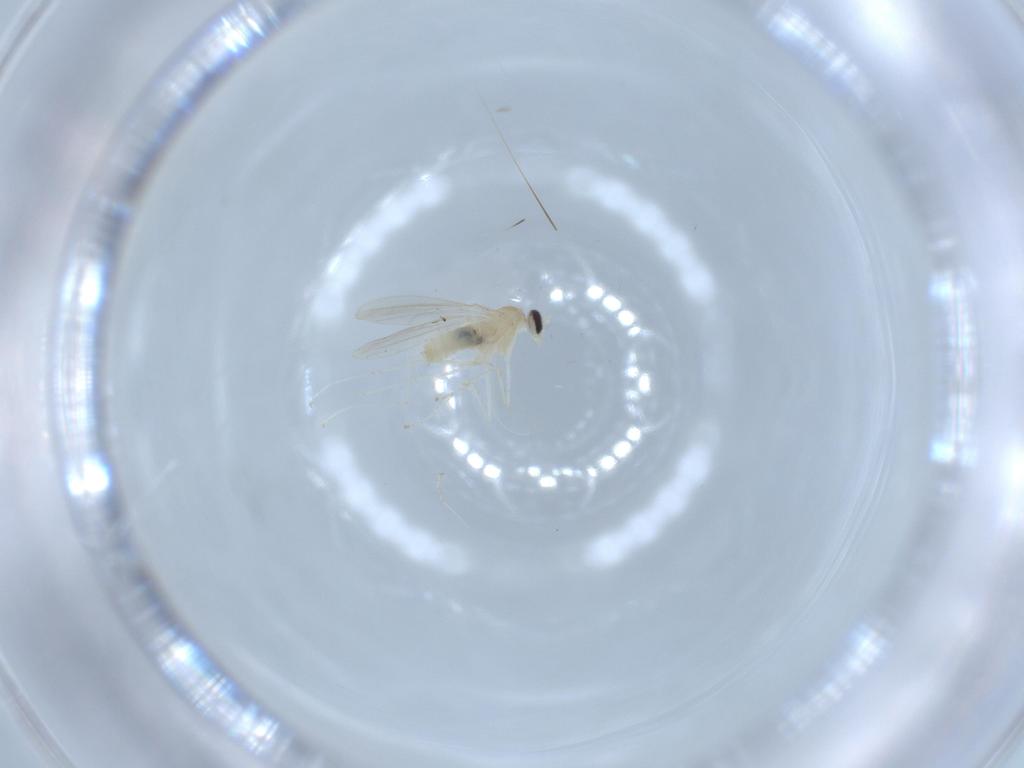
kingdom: Animalia
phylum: Arthropoda
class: Insecta
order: Diptera
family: Cecidomyiidae
